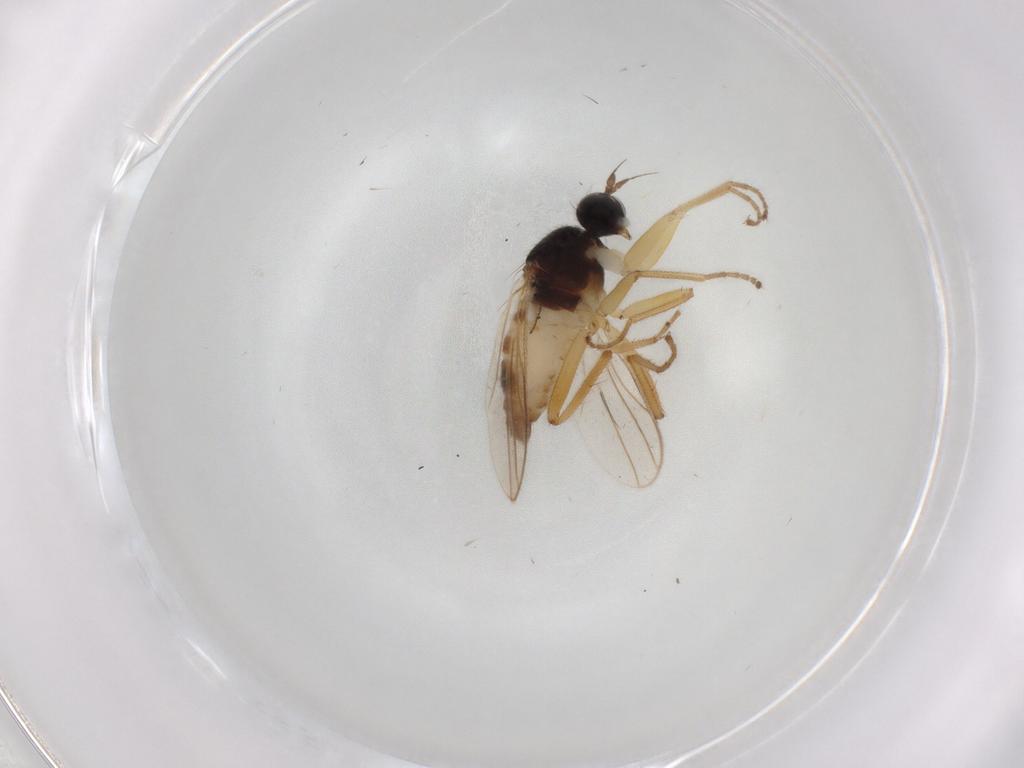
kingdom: Animalia
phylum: Arthropoda
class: Insecta
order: Diptera
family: Hybotidae
